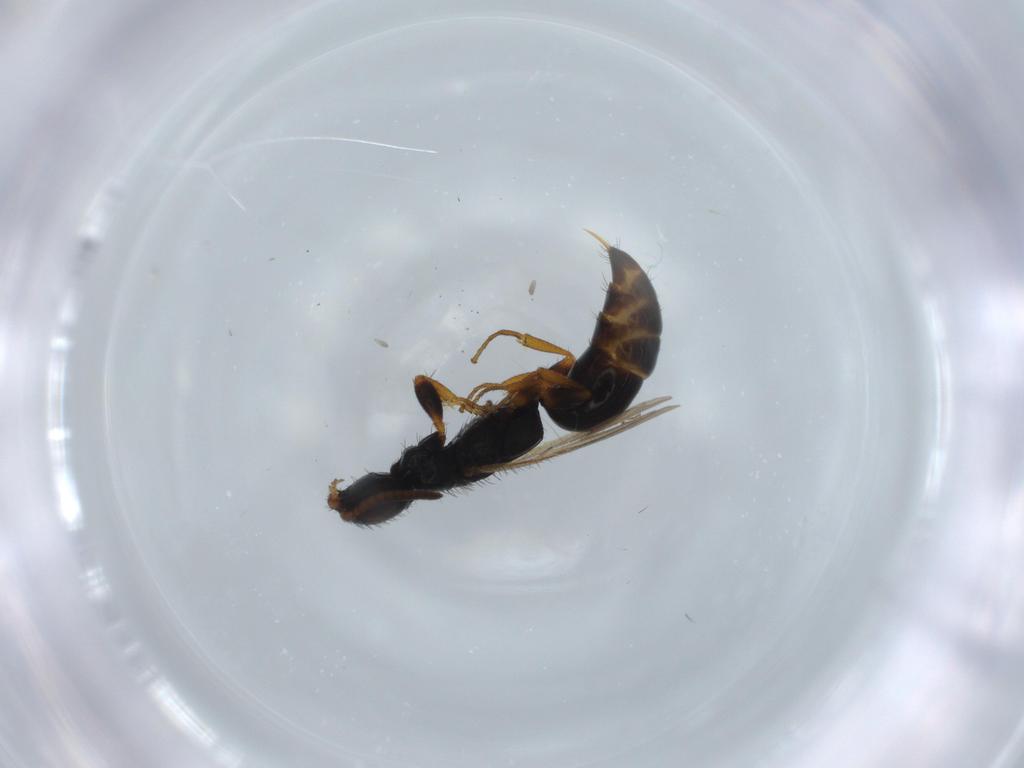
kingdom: Animalia
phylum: Arthropoda
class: Insecta
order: Hymenoptera
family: Bethylidae
